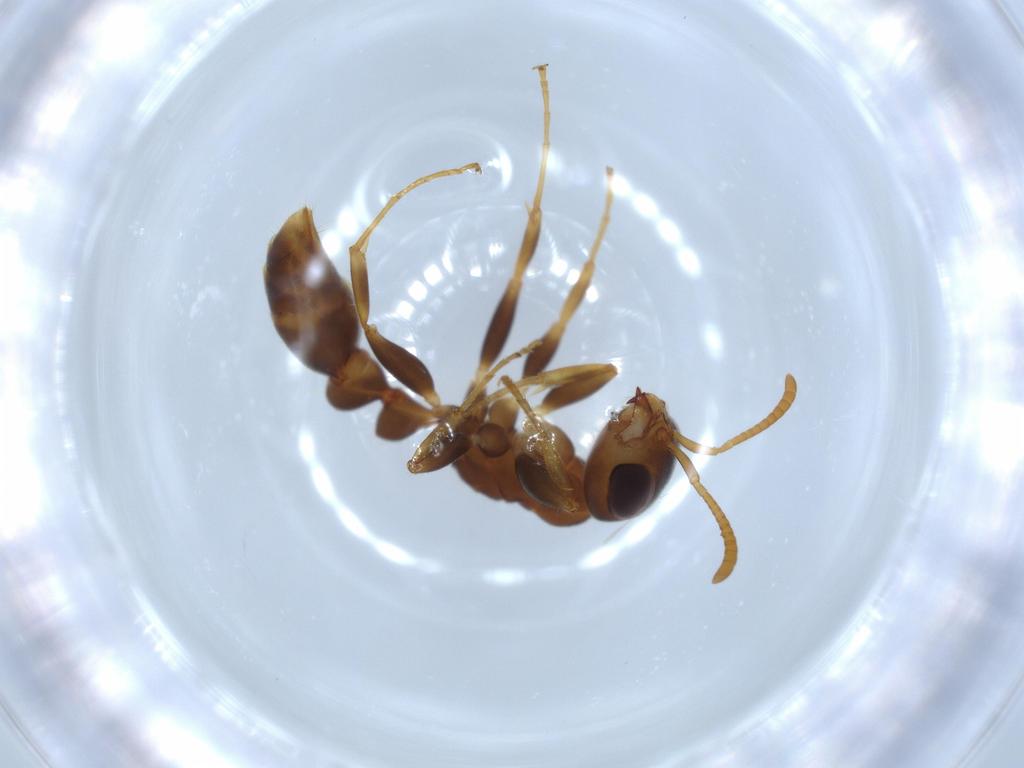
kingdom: Animalia
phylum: Arthropoda
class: Insecta
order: Hymenoptera
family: Formicidae
